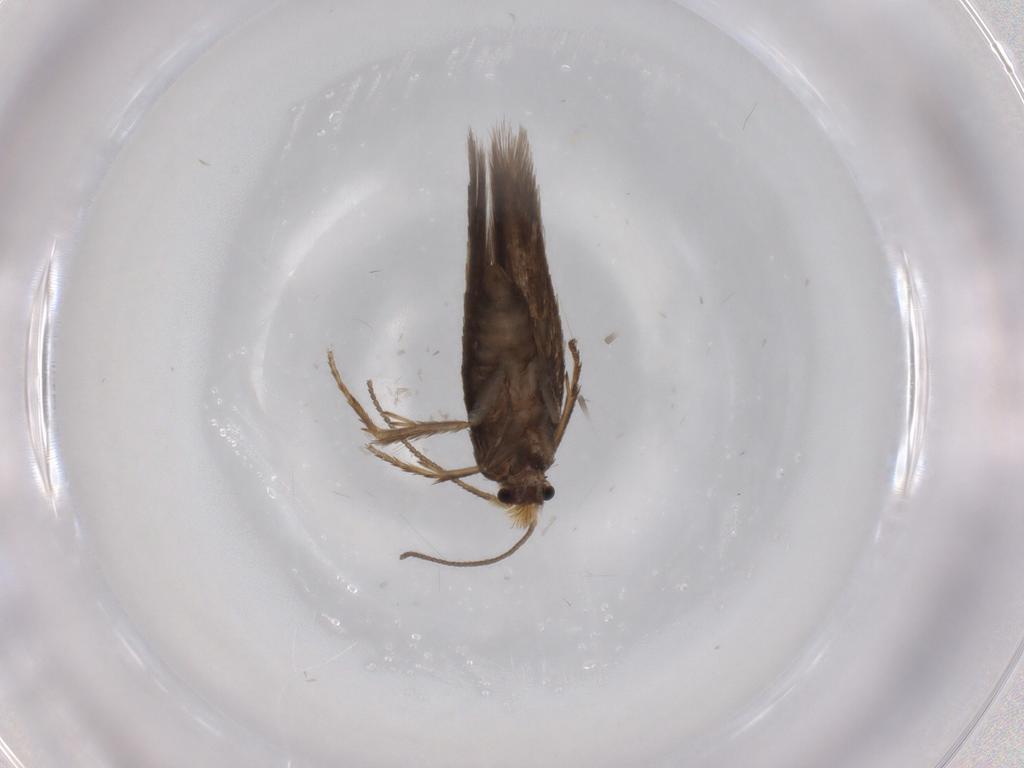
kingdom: Animalia
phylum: Arthropoda
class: Insecta
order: Lepidoptera
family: Nepticulidae
